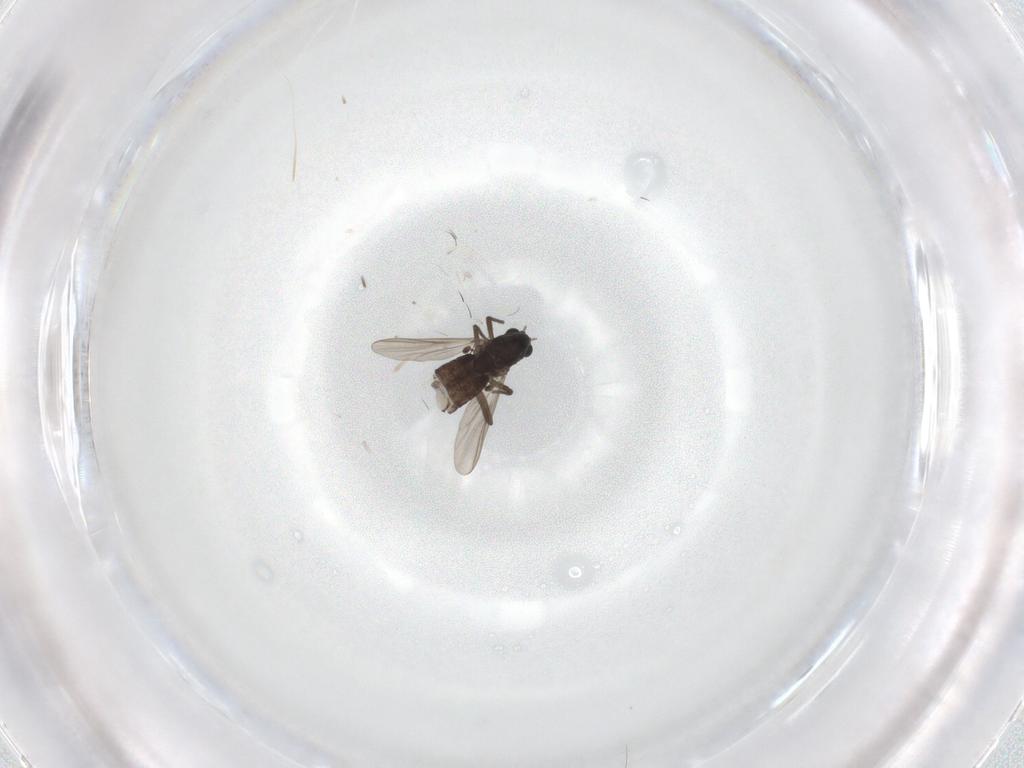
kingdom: Animalia
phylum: Arthropoda
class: Insecta
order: Diptera
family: Chironomidae
